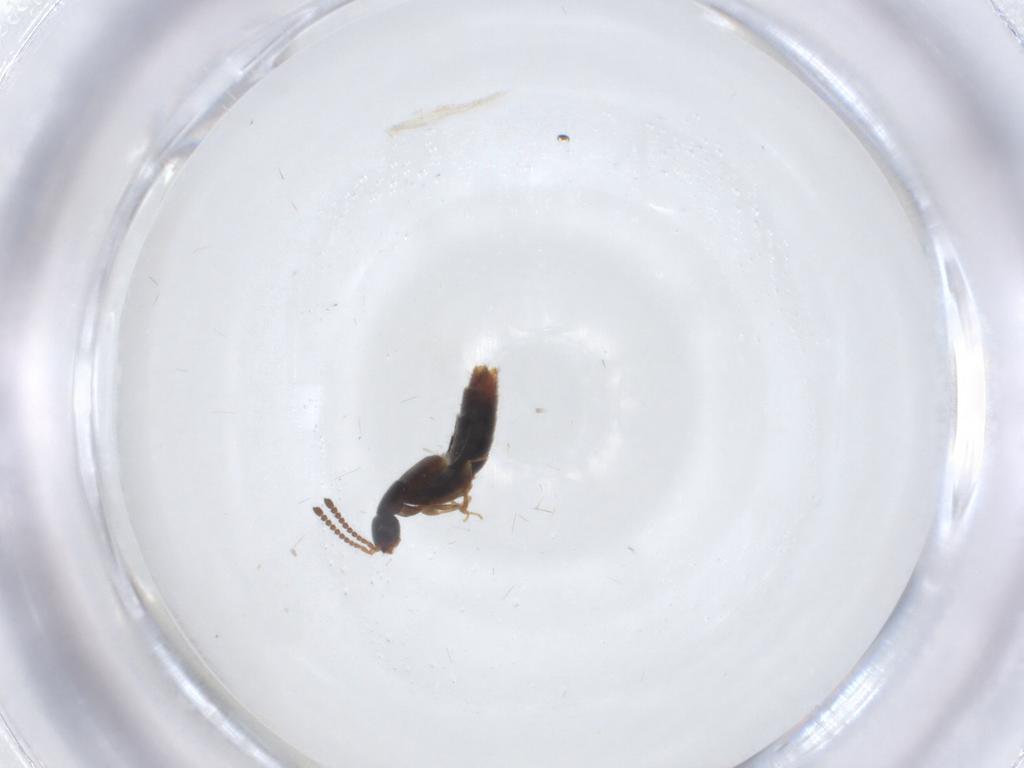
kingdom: Animalia
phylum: Arthropoda
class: Insecta
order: Coleoptera
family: Staphylinidae
